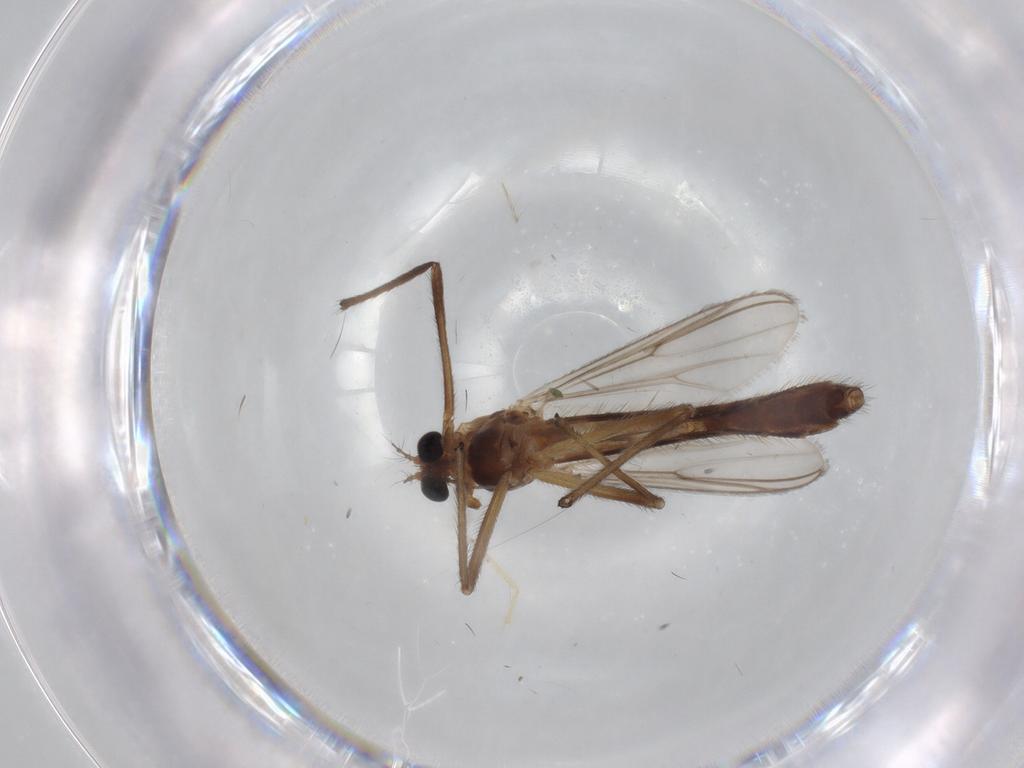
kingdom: Animalia
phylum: Arthropoda
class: Insecta
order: Diptera
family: Chironomidae
